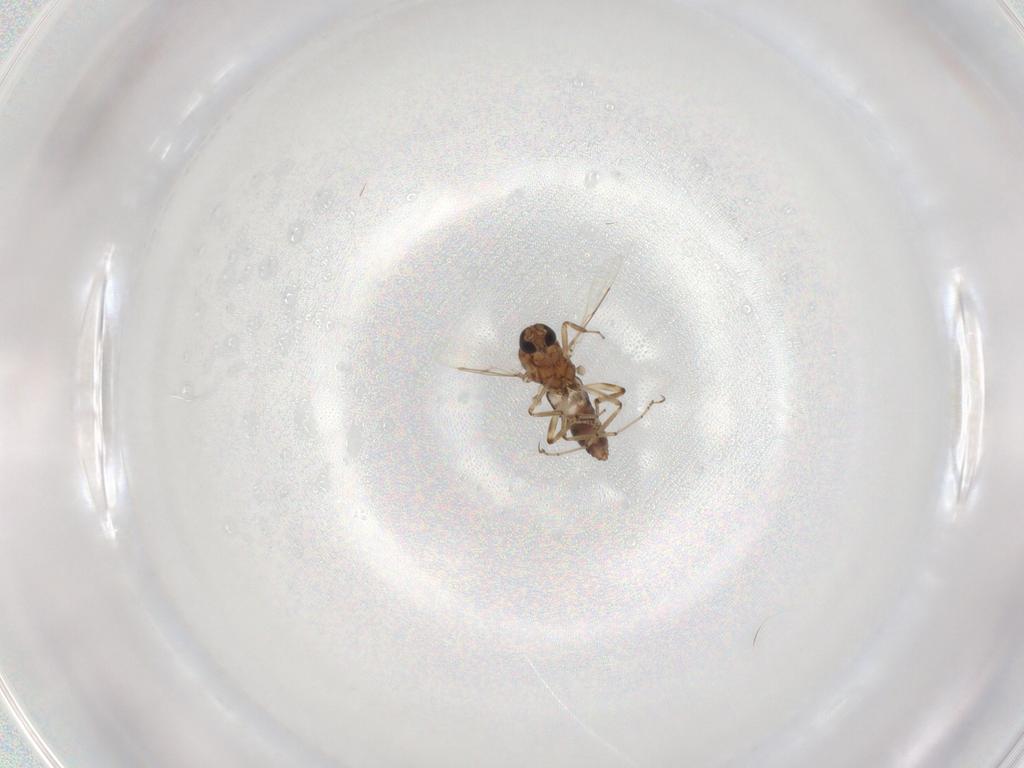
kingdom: Animalia
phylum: Arthropoda
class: Insecta
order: Diptera
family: Ceratopogonidae
